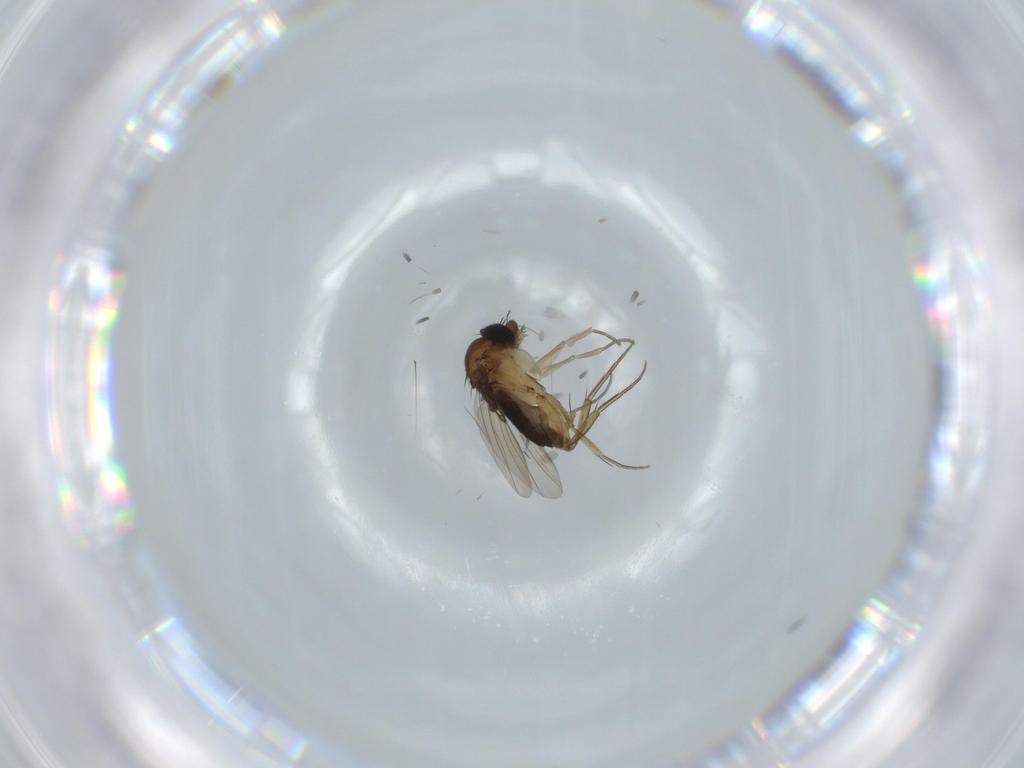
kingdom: Animalia
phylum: Arthropoda
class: Insecta
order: Diptera
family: Phoridae
